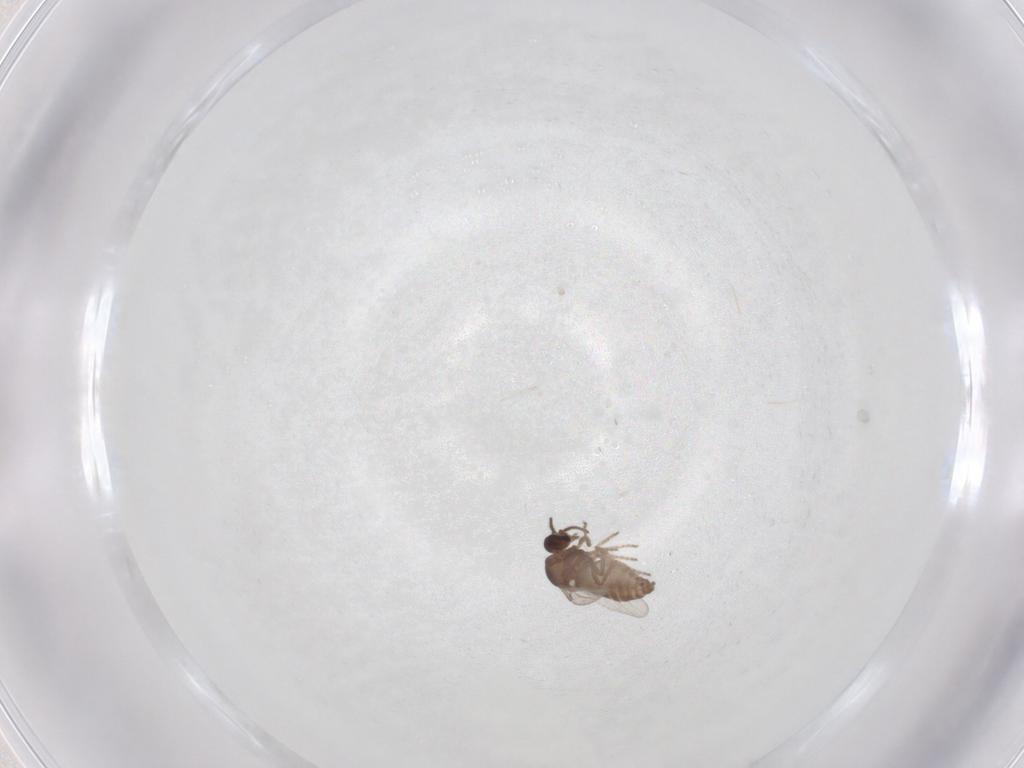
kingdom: Animalia
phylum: Arthropoda
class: Insecta
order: Diptera
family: Ceratopogonidae
